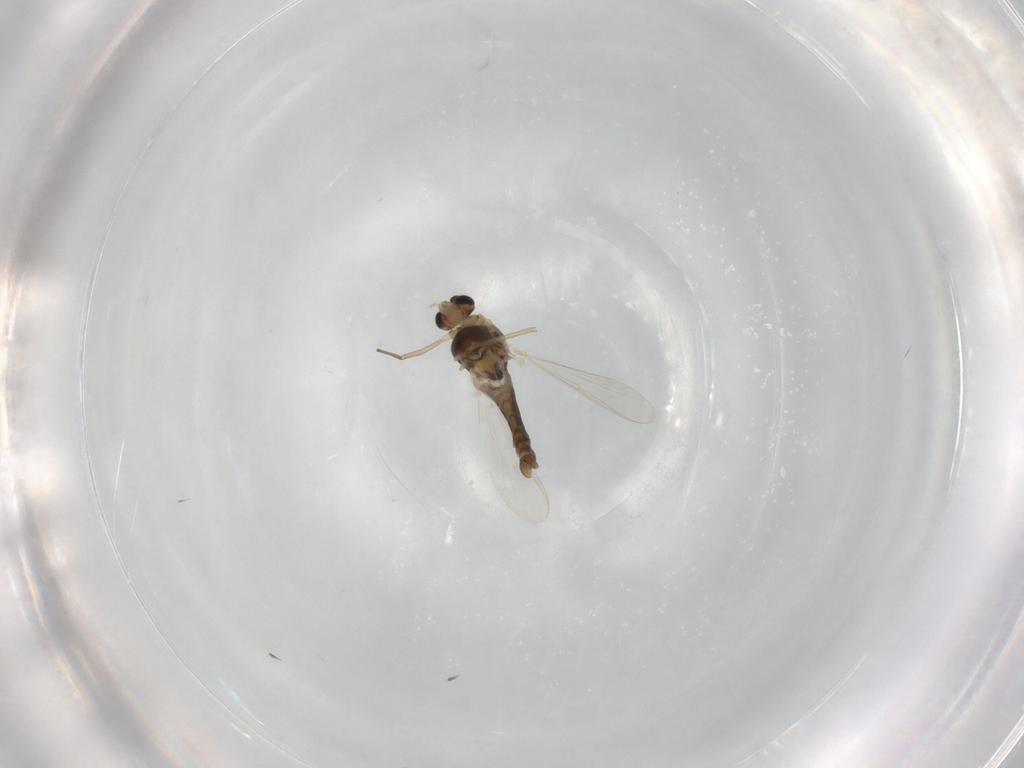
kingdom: Animalia
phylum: Arthropoda
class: Insecta
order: Diptera
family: Chironomidae
